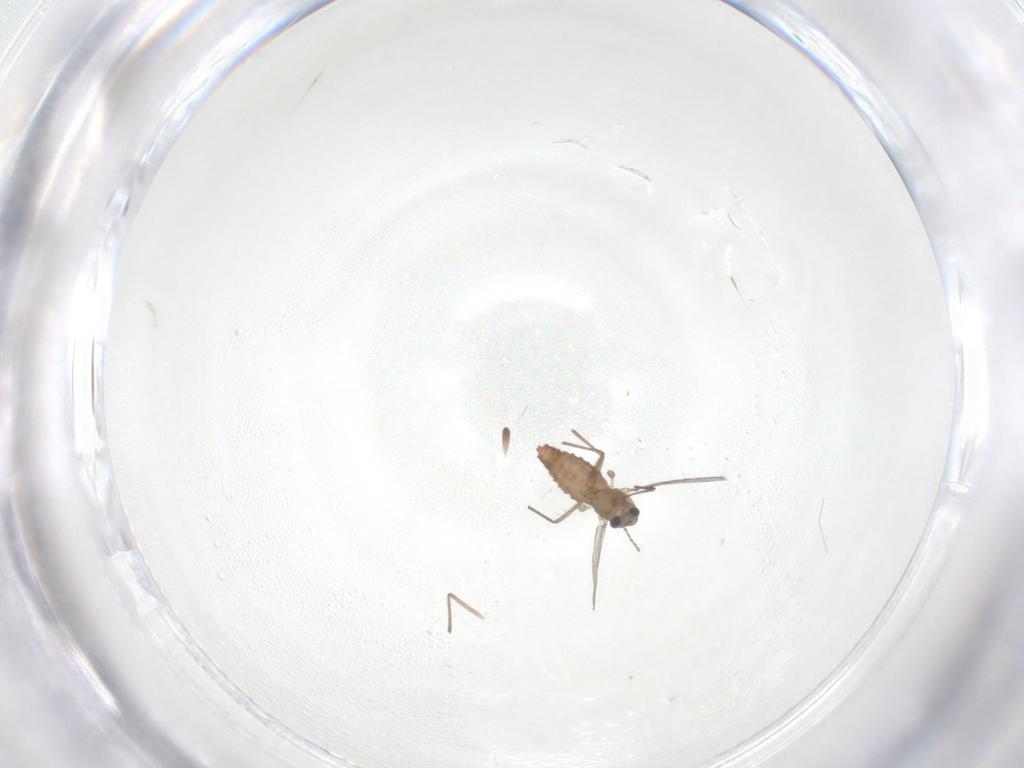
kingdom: Animalia
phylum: Arthropoda
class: Insecta
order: Diptera
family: Chironomidae
